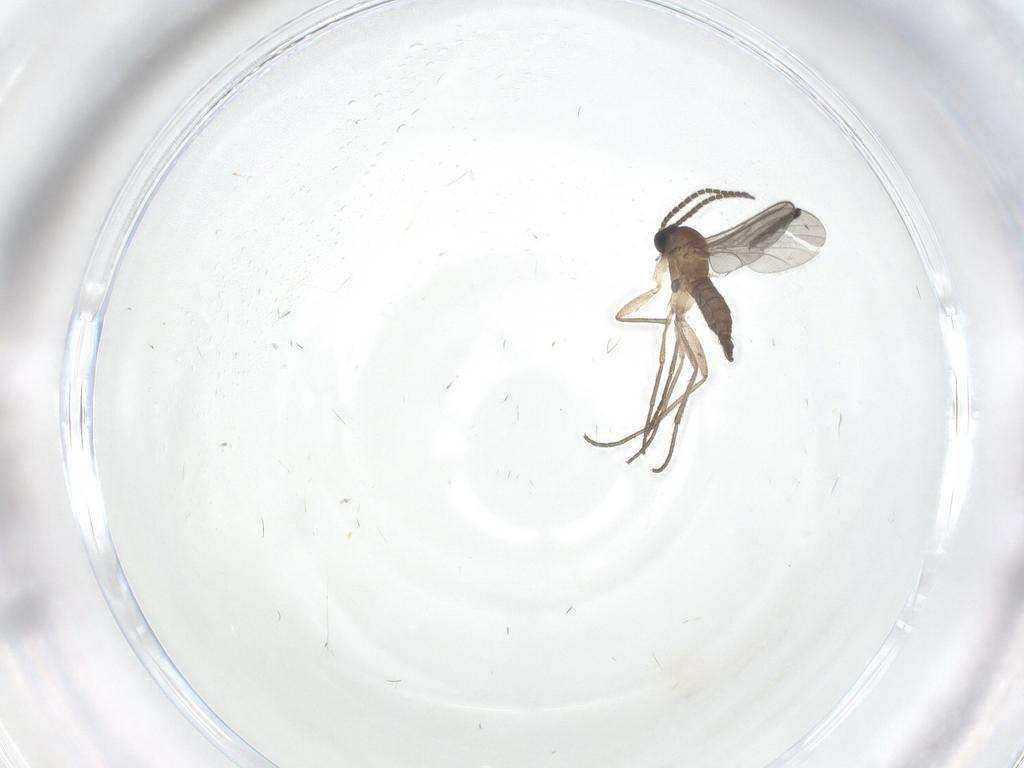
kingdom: Animalia
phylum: Arthropoda
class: Insecta
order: Diptera
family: Sciaridae
